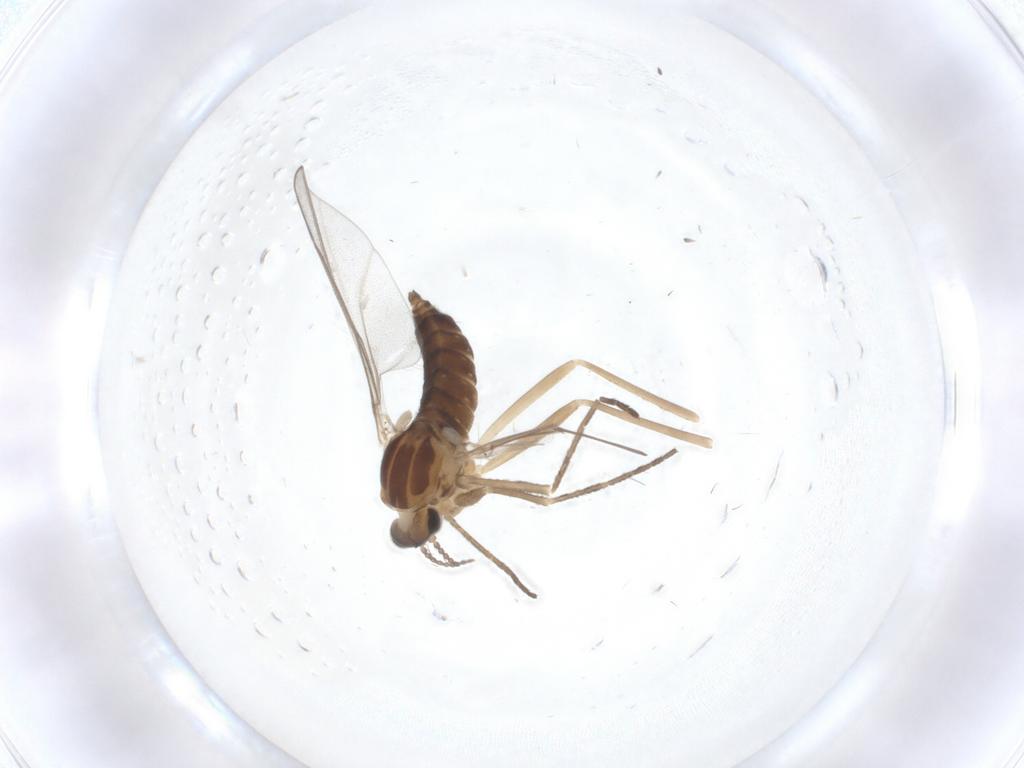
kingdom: Animalia
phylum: Arthropoda
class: Insecta
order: Diptera
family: Cecidomyiidae
